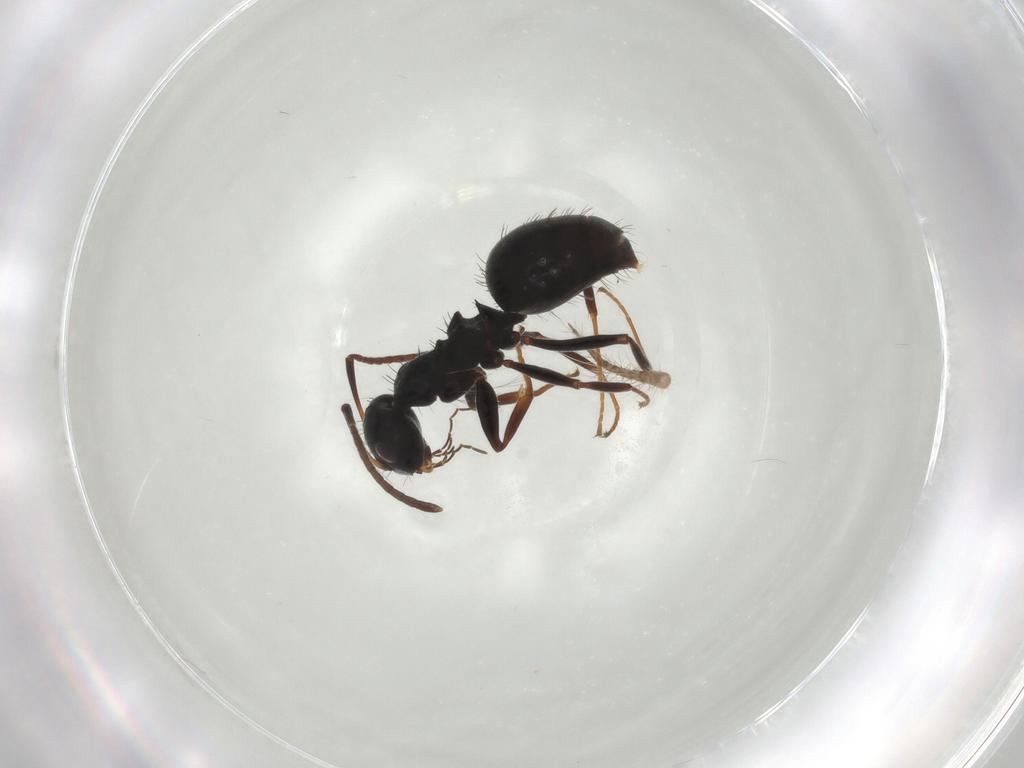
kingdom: Animalia
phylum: Arthropoda
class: Insecta
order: Hymenoptera
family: Formicidae
